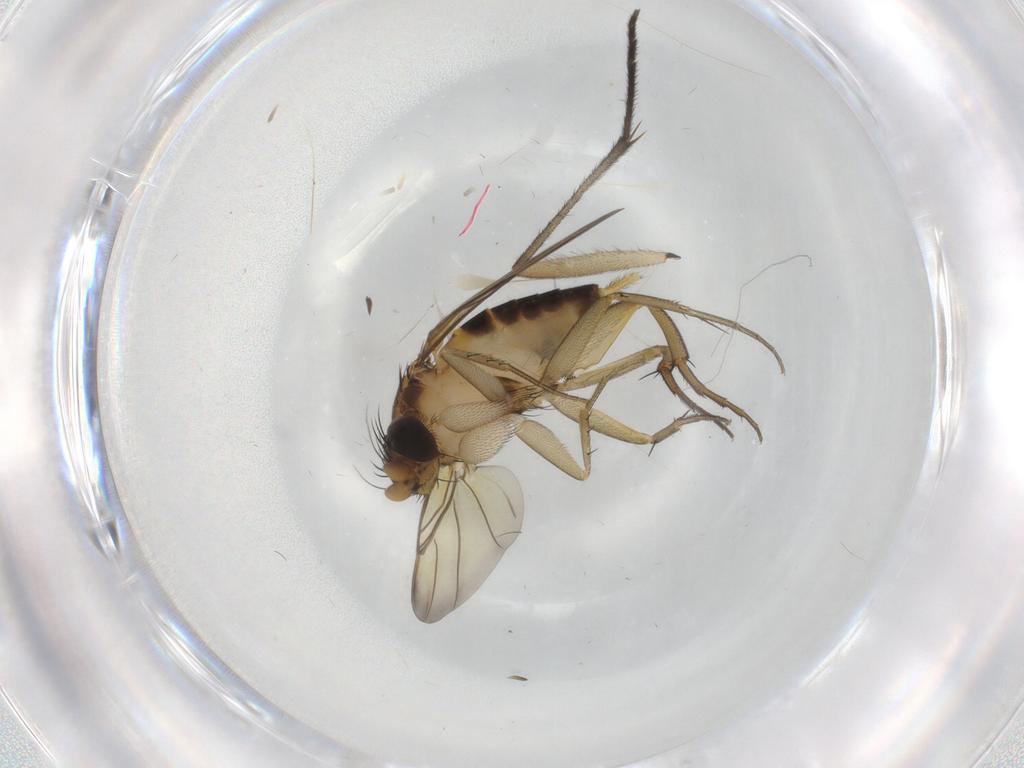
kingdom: Animalia
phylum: Arthropoda
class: Insecta
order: Diptera
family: Phoridae
